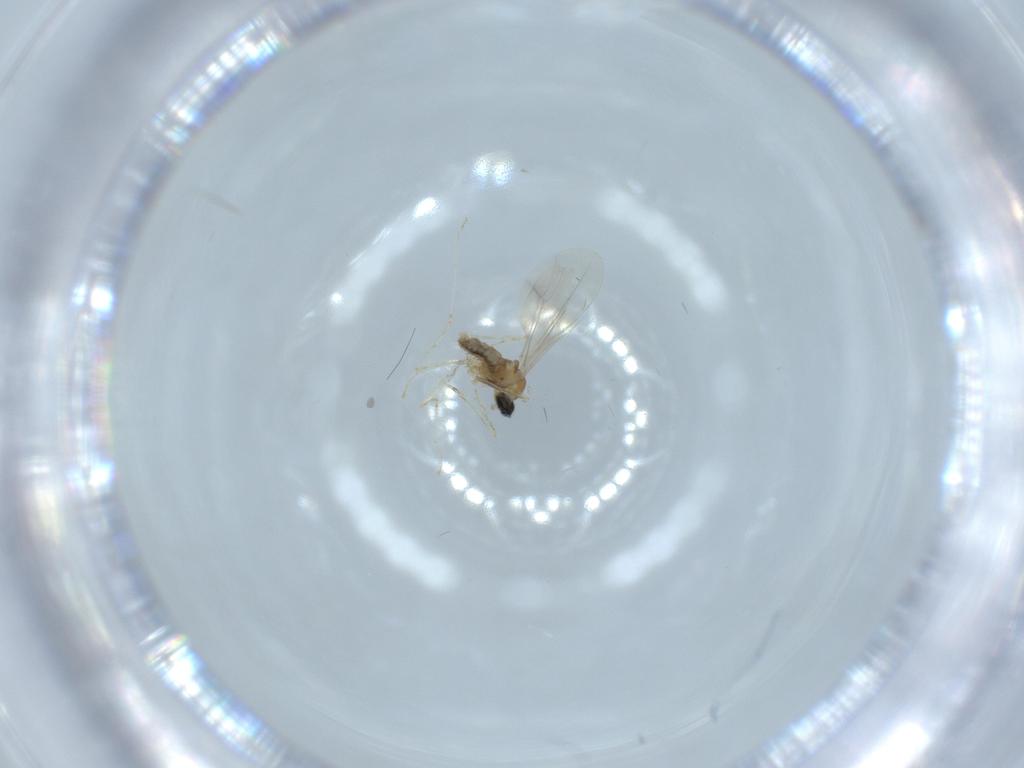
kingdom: Animalia
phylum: Arthropoda
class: Insecta
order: Diptera
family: Cecidomyiidae
